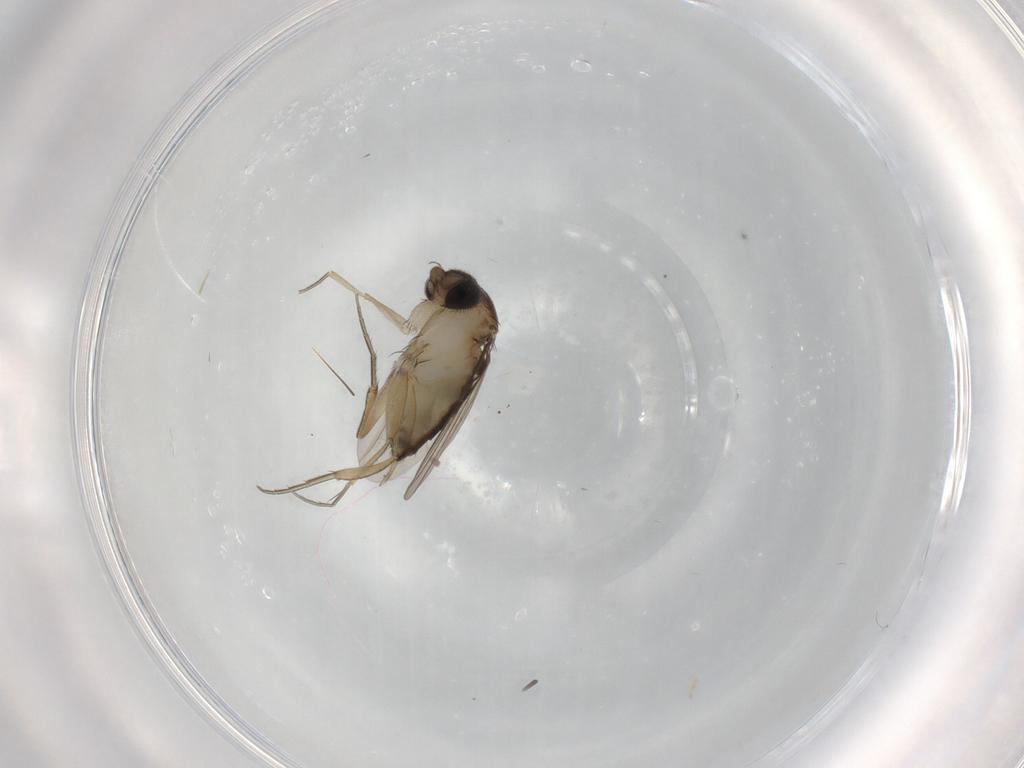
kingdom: Animalia
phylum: Arthropoda
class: Insecta
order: Diptera
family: Phoridae
